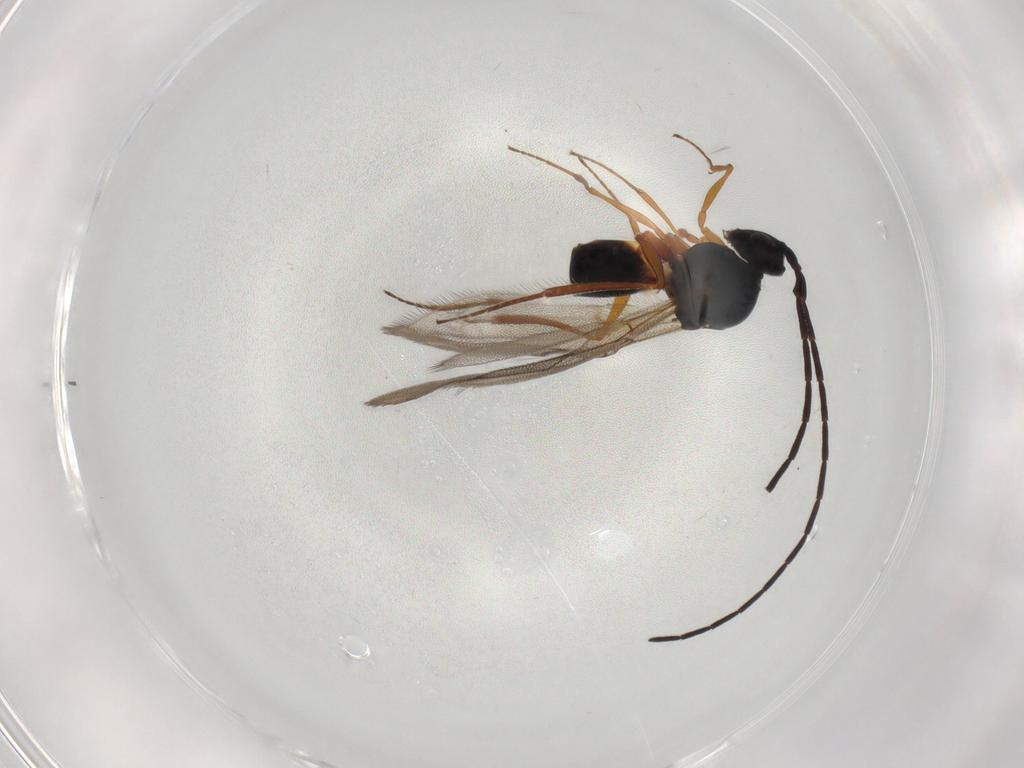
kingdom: Animalia
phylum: Arthropoda
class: Insecta
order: Hymenoptera
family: Figitidae
